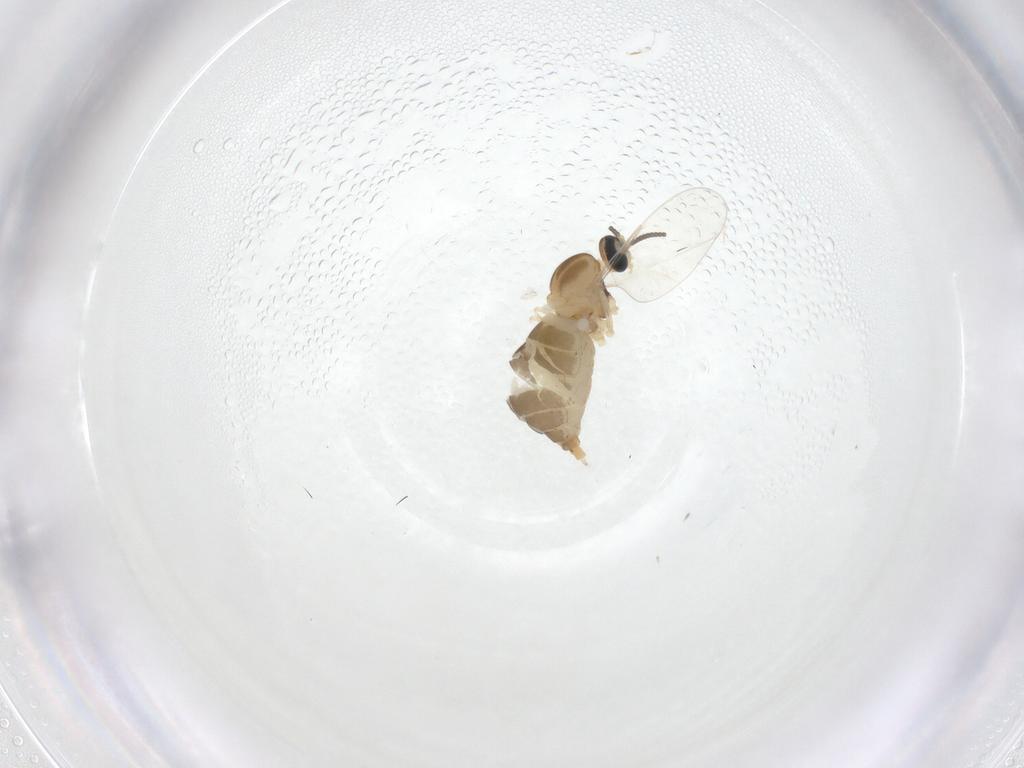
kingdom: Animalia
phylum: Arthropoda
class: Insecta
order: Diptera
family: Cecidomyiidae
